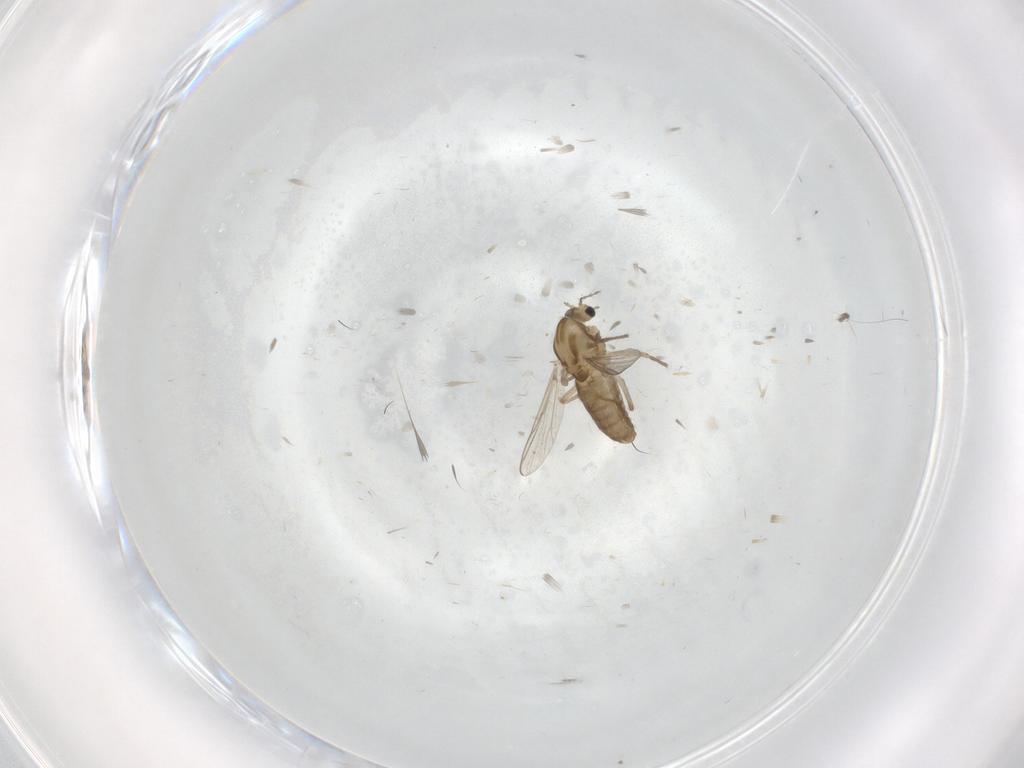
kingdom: Animalia
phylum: Arthropoda
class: Insecta
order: Diptera
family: Chironomidae
